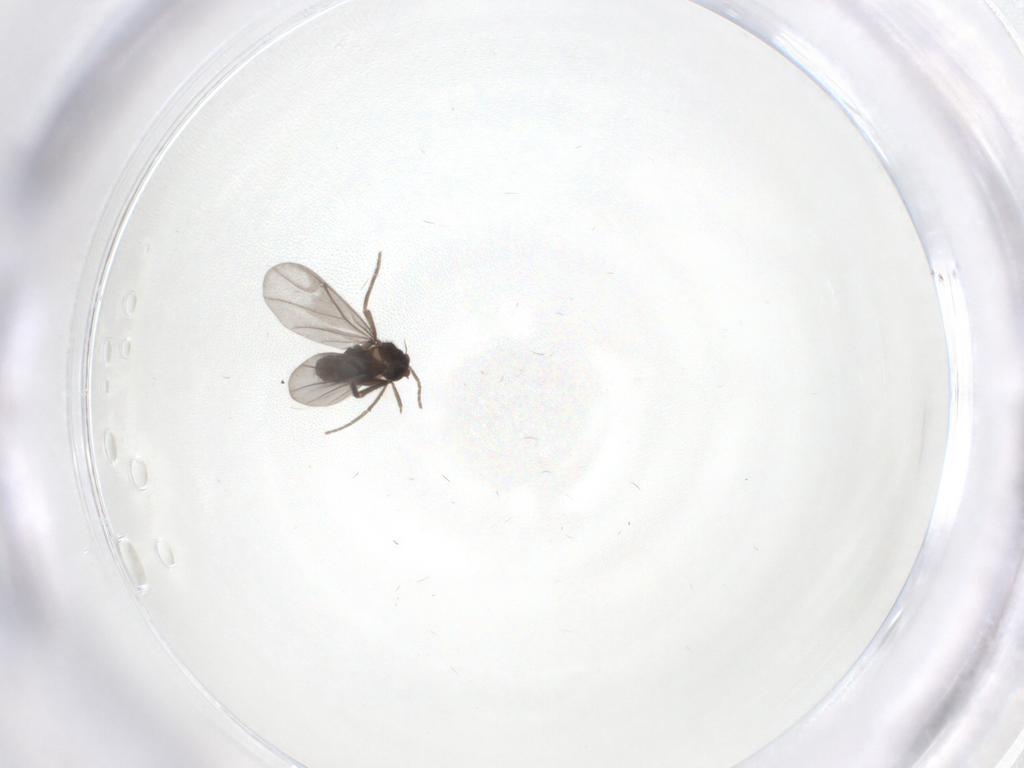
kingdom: Animalia
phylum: Arthropoda
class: Insecta
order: Diptera
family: Phoridae
